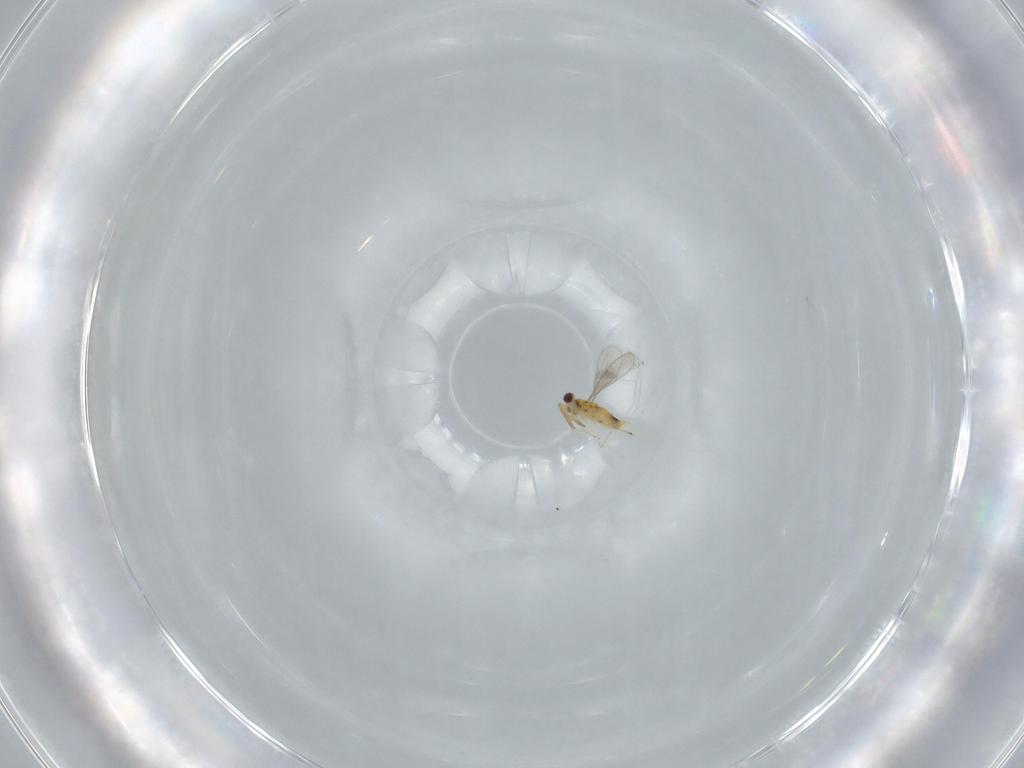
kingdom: Animalia
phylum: Arthropoda
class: Insecta
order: Hymenoptera
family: Aphelinidae
